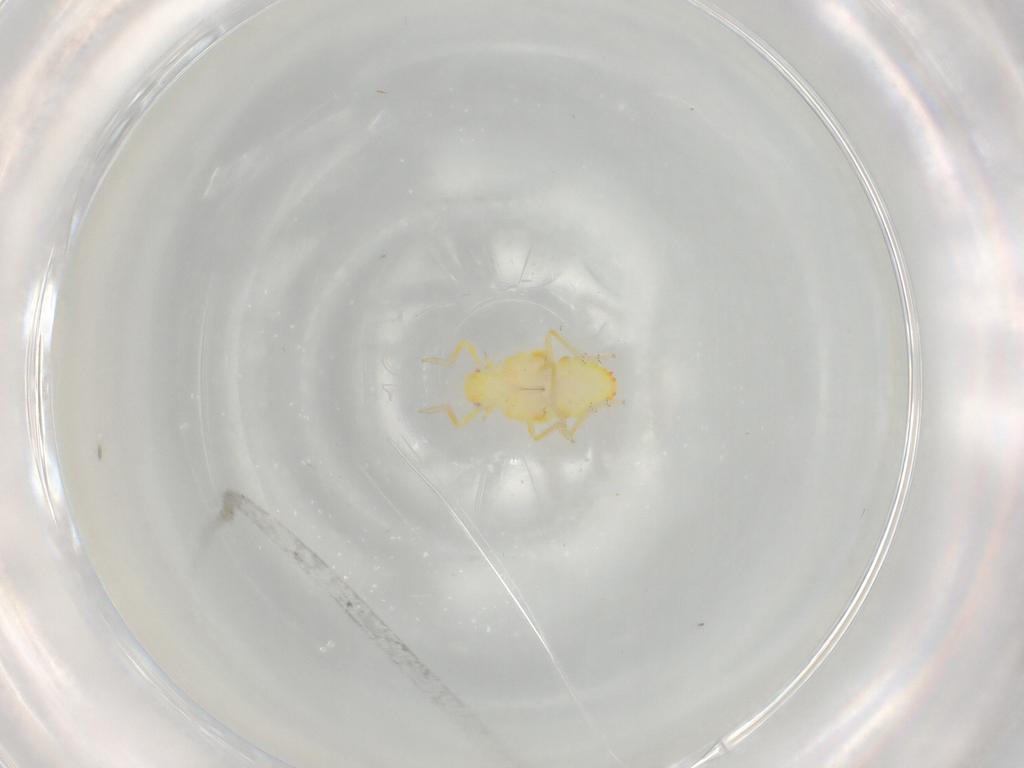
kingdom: Animalia
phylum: Arthropoda
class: Insecta
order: Hemiptera
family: Tropiduchidae
